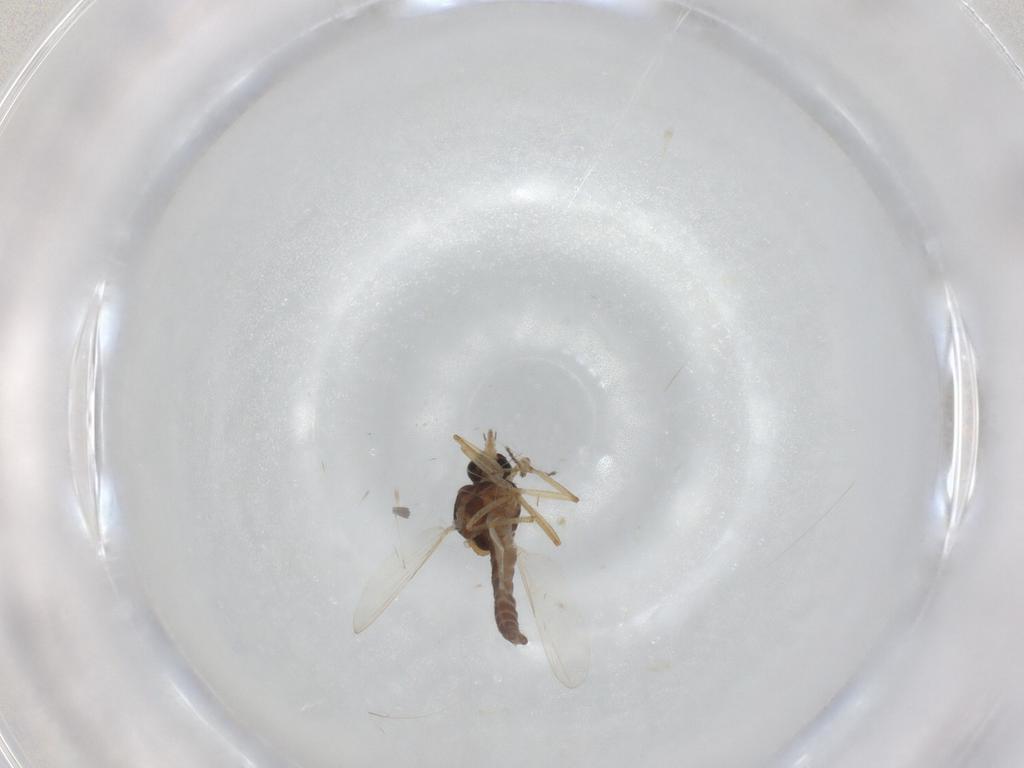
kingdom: Animalia
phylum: Arthropoda
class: Insecta
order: Diptera
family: Ceratopogonidae
